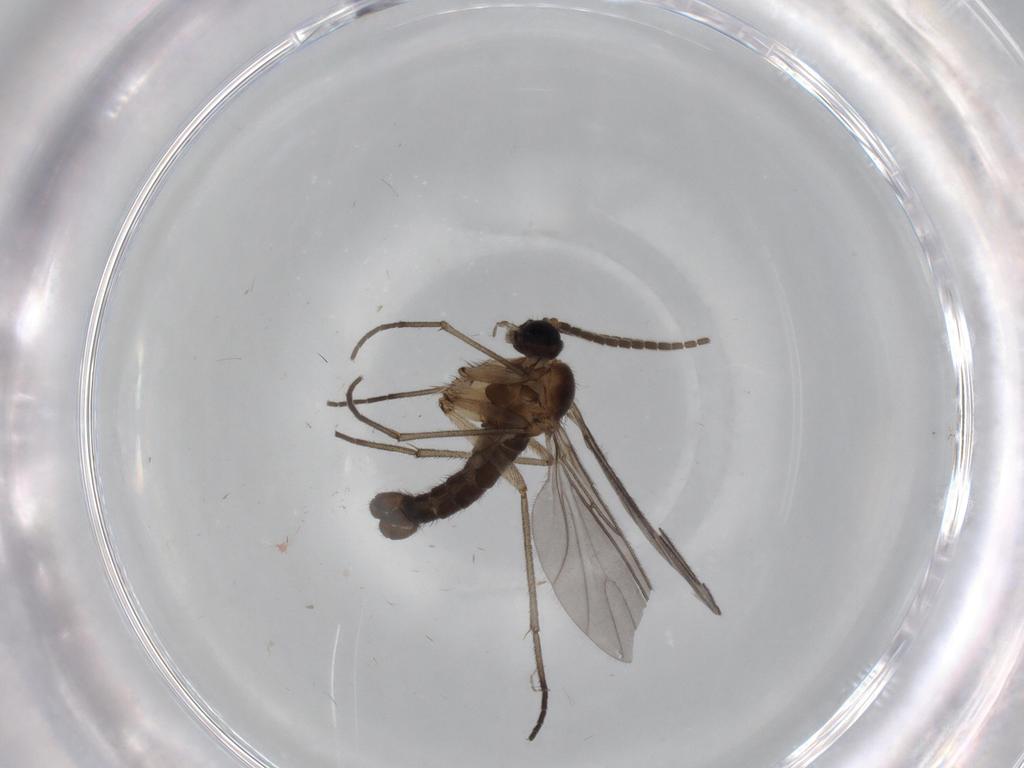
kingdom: Animalia
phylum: Arthropoda
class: Insecta
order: Diptera
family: Sciaridae
